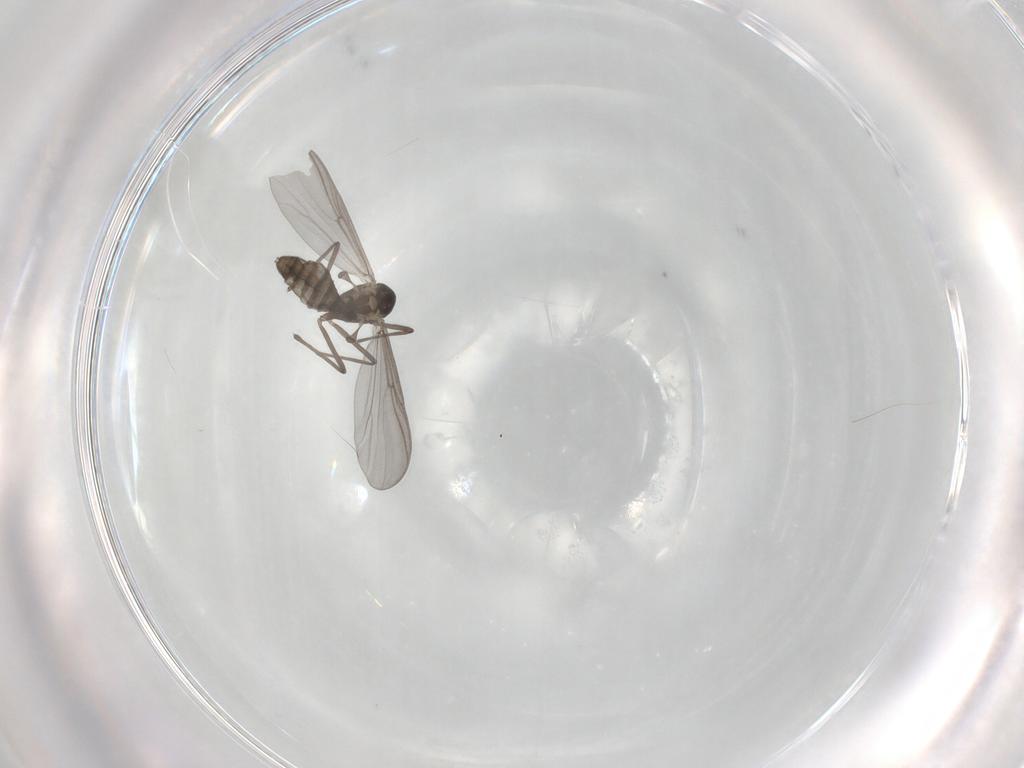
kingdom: Animalia
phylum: Arthropoda
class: Insecta
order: Diptera
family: Chironomidae
